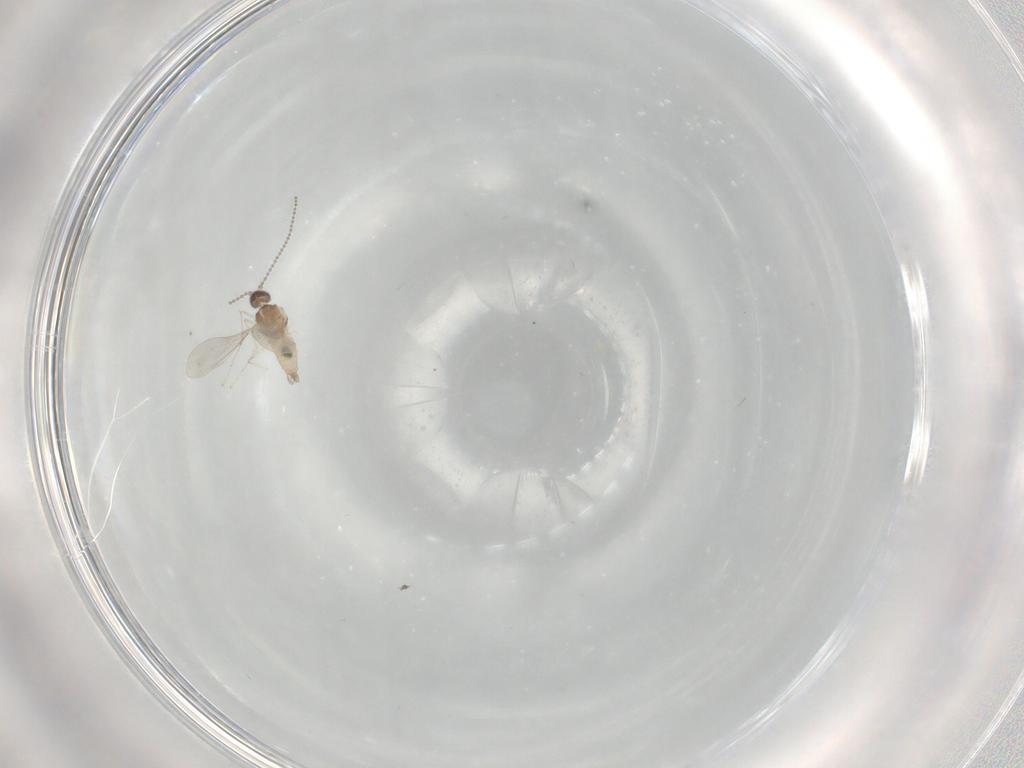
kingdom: Animalia
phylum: Arthropoda
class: Insecta
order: Diptera
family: Cecidomyiidae
